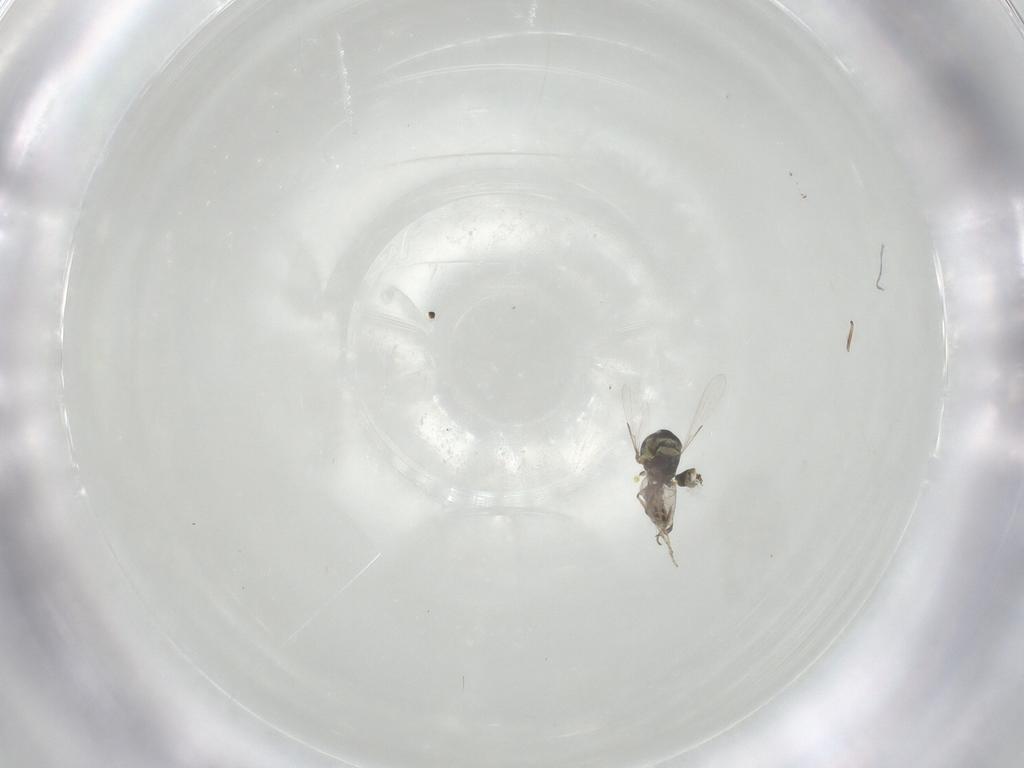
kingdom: Animalia
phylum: Arthropoda
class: Insecta
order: Diptera
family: Ceratopogonidae
